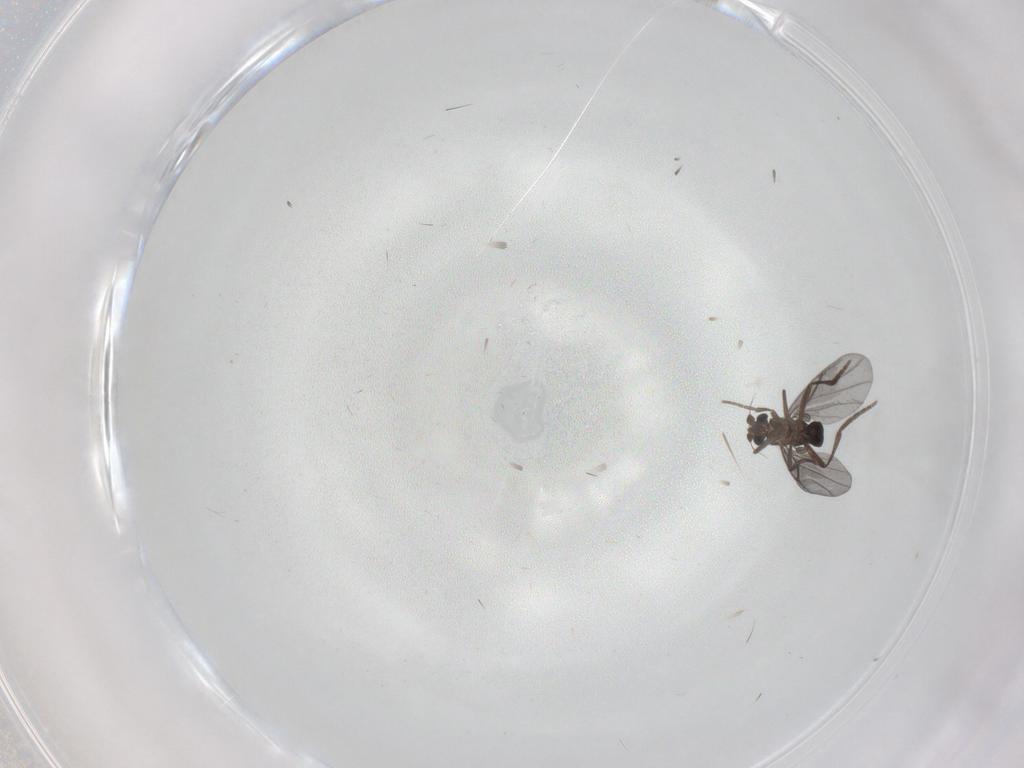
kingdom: Animalia
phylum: Arthropoda
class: Insecta
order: Diptera
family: Phoridae
